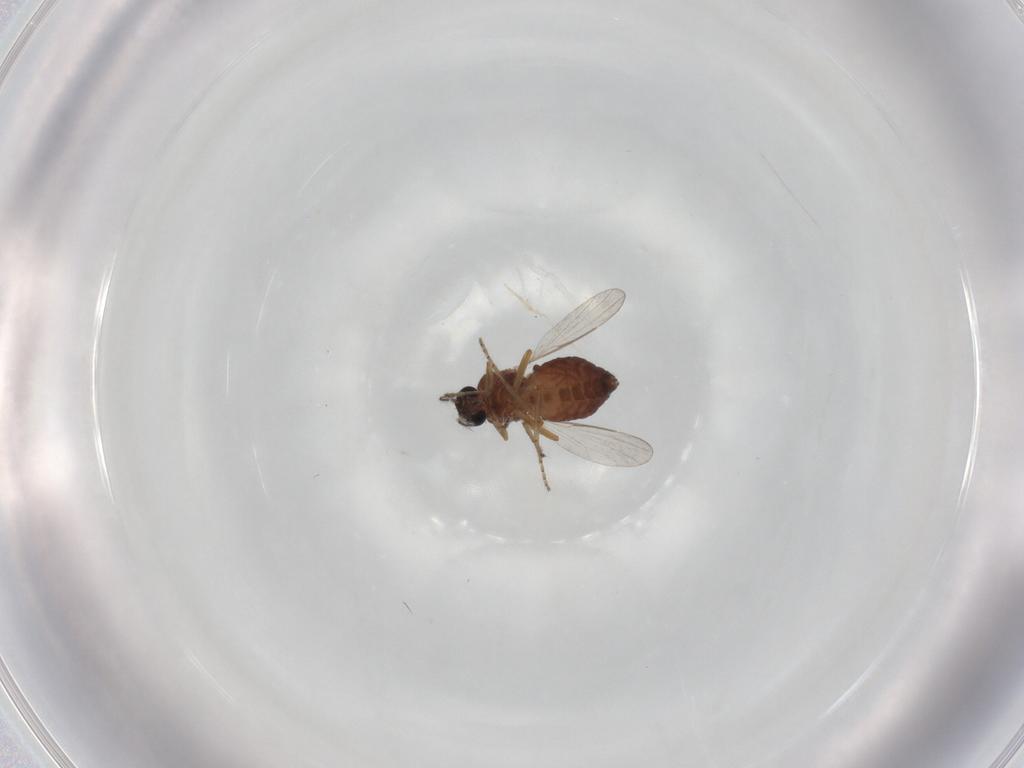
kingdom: Animalia
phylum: Arthropoda
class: Insecta
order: Diptera
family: Ceratopogonidae
